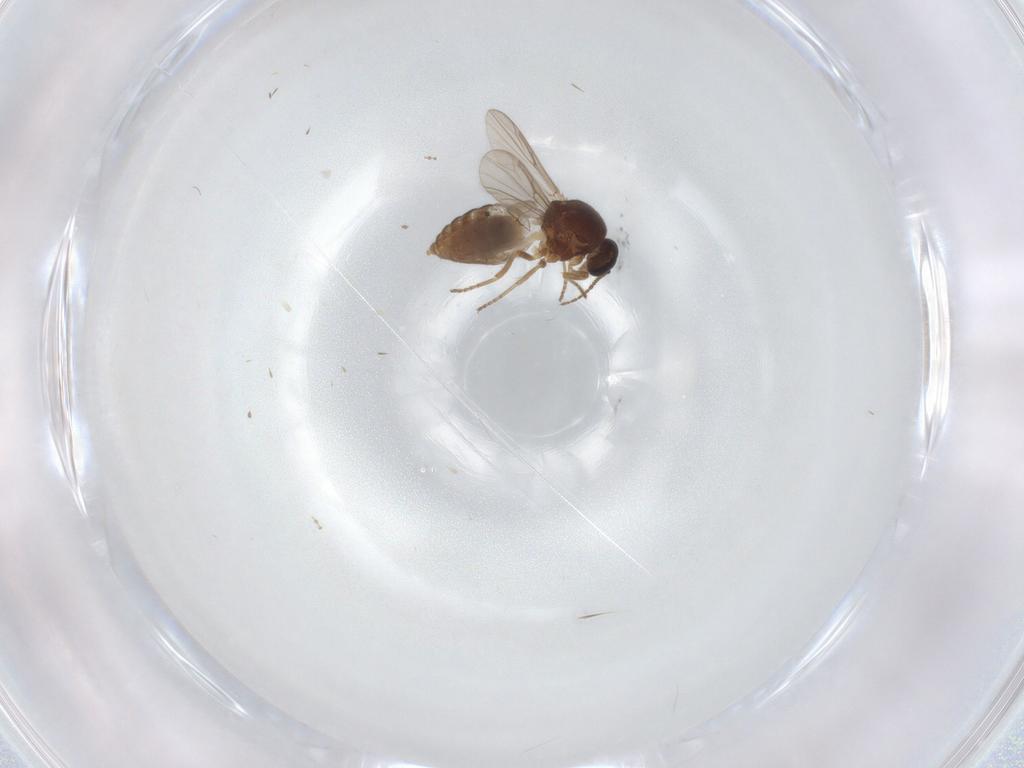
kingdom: Animalia
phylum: Arthropoda
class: Insecta
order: Diptera
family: Ceratopogonidae
